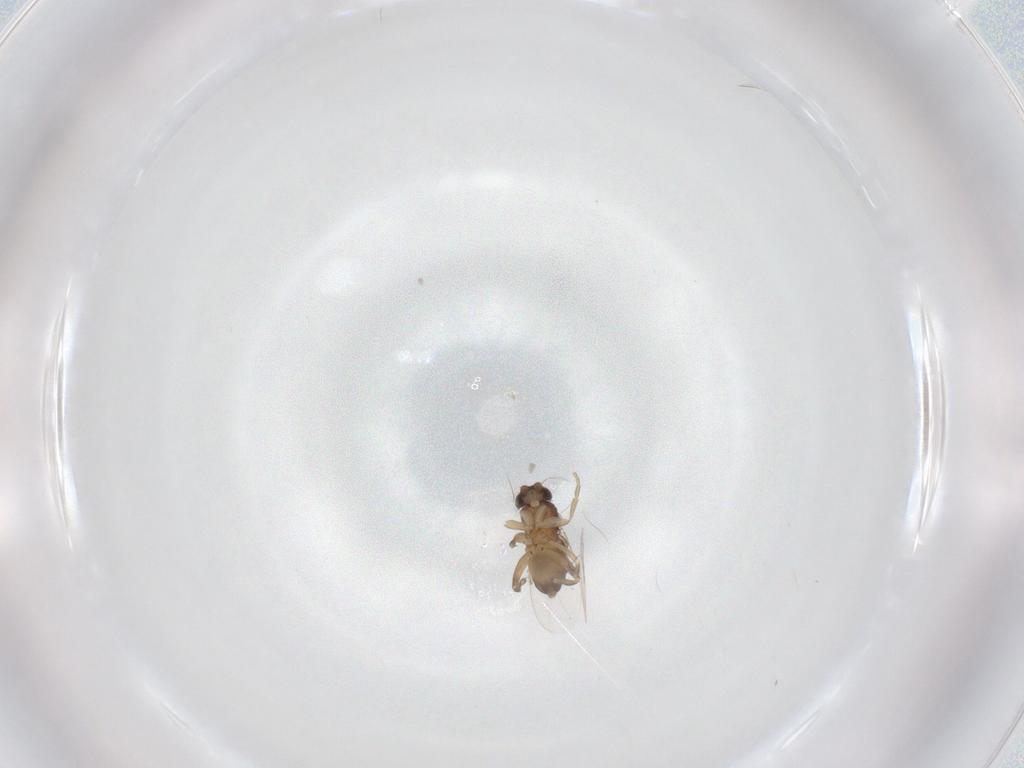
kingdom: Animalia
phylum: Arthropoda
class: Insecta
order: Diptera
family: Phoridae
